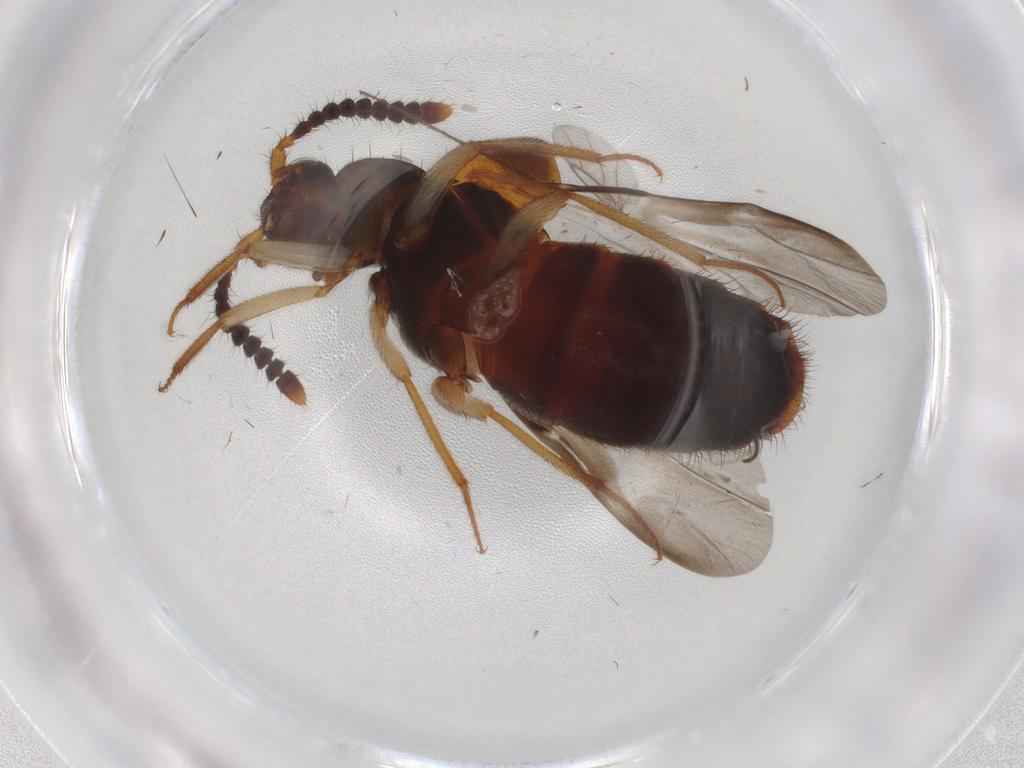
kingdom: Animalia
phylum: Arthropoda
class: Insecta
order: Coleoptera
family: Staphylinidae
